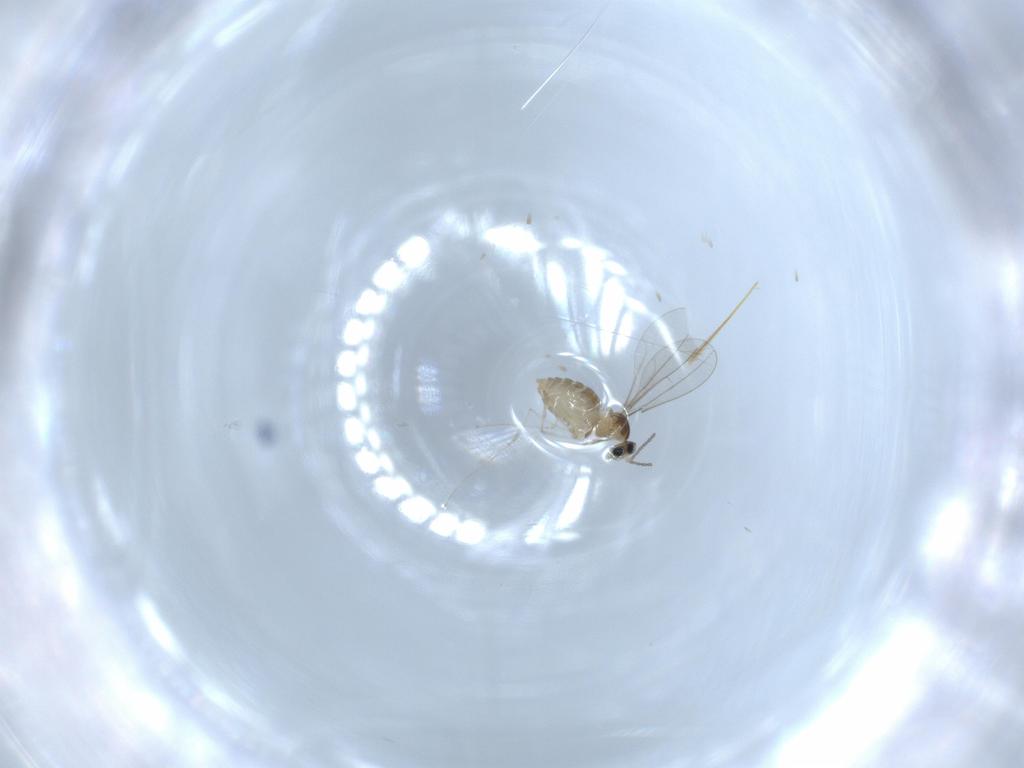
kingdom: Animalia
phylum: Arthropoda
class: Insecta
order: Diptera
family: Cecidomyiidae
